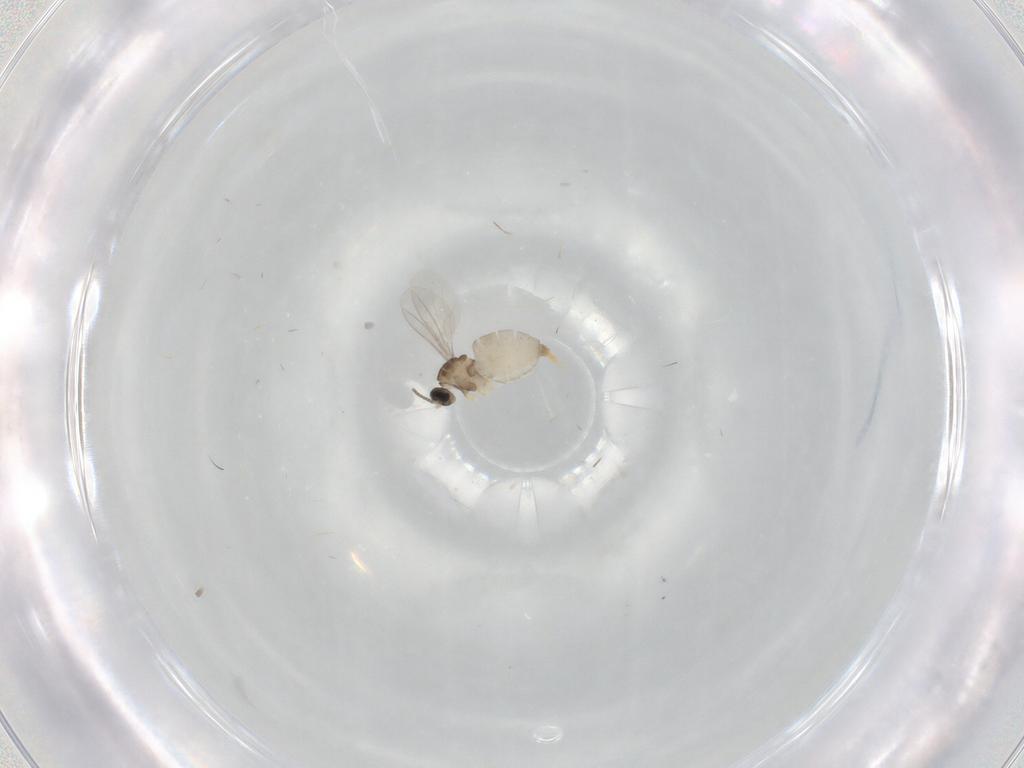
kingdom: Animalia
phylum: Arthropoda
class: Insecta
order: Diptera
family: Cecidomyiidae
